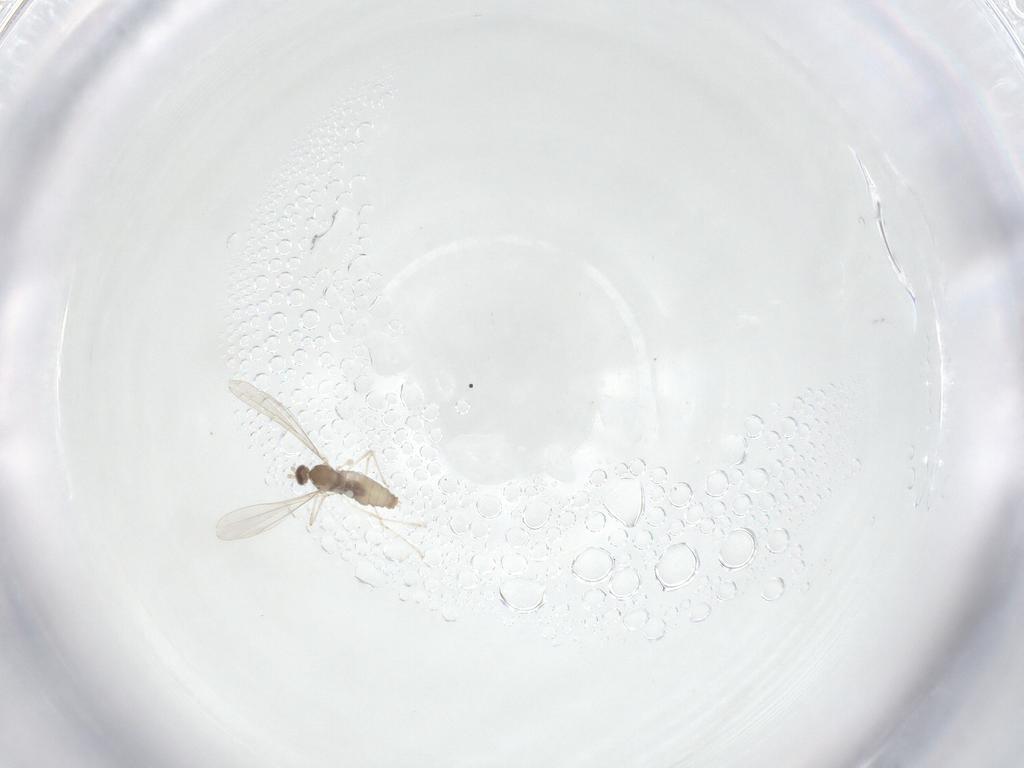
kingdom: Animalia
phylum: Arthropoda
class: Insecta
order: Diptera
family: Cecidomyiidae
